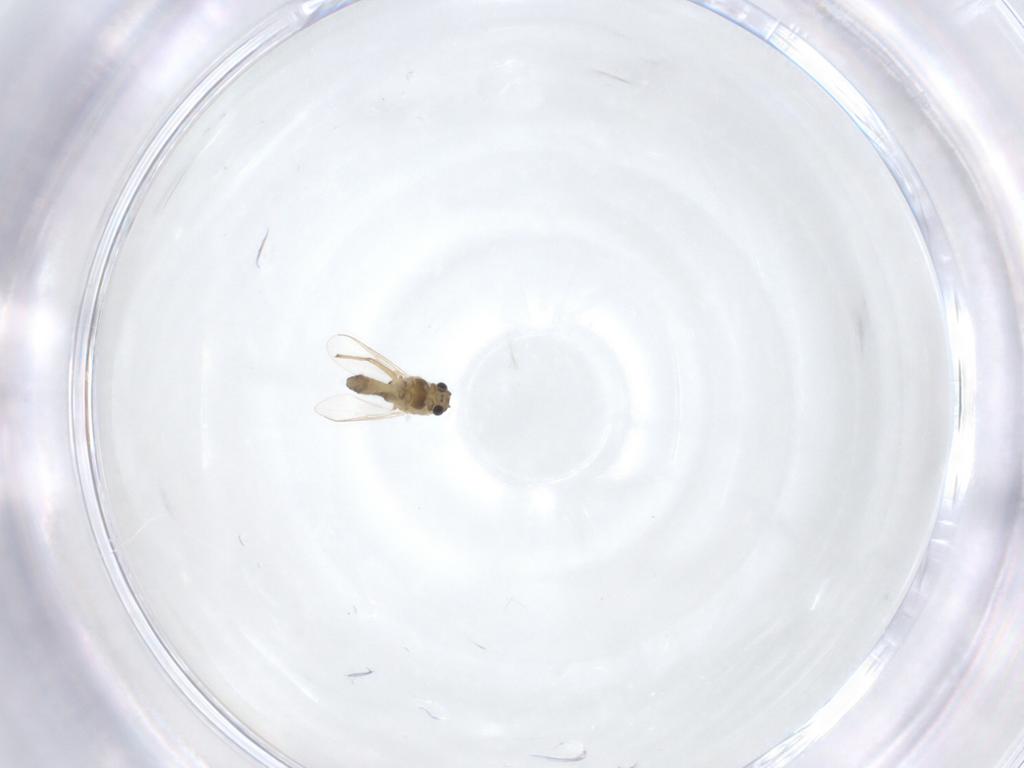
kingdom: Animalia
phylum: Arthropoda
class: Insecta
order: Diptera
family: Chironomidae
